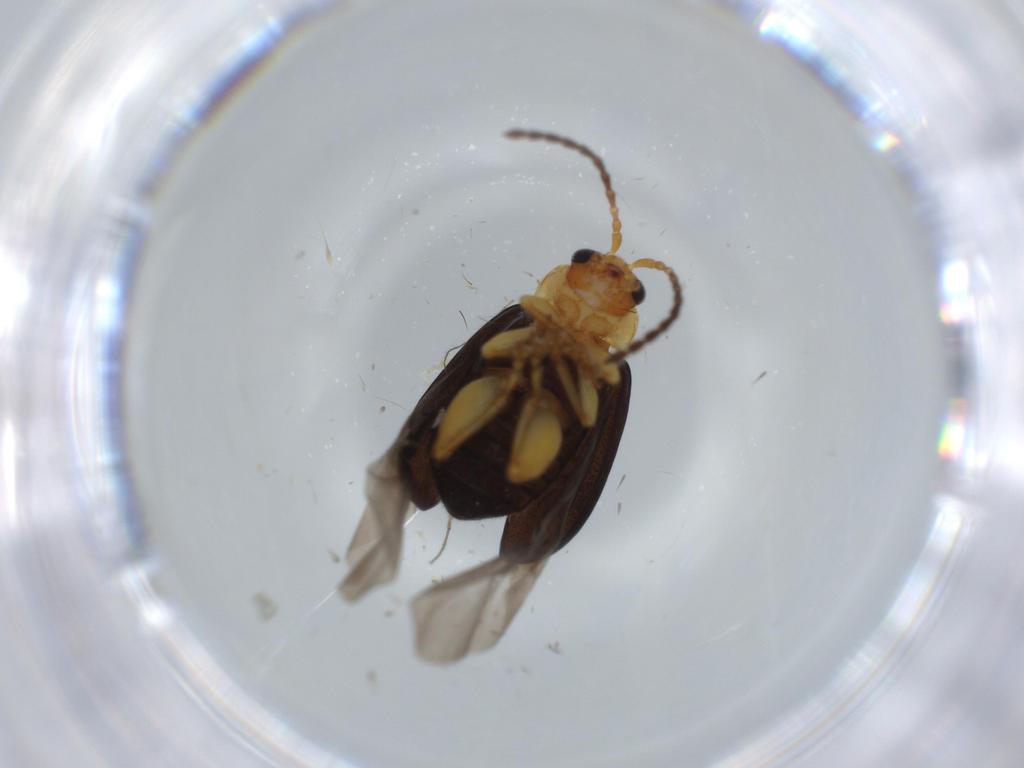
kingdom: Animalia
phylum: Arthropoda
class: Insecta
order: Coleoptera
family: Chrysomelidae
